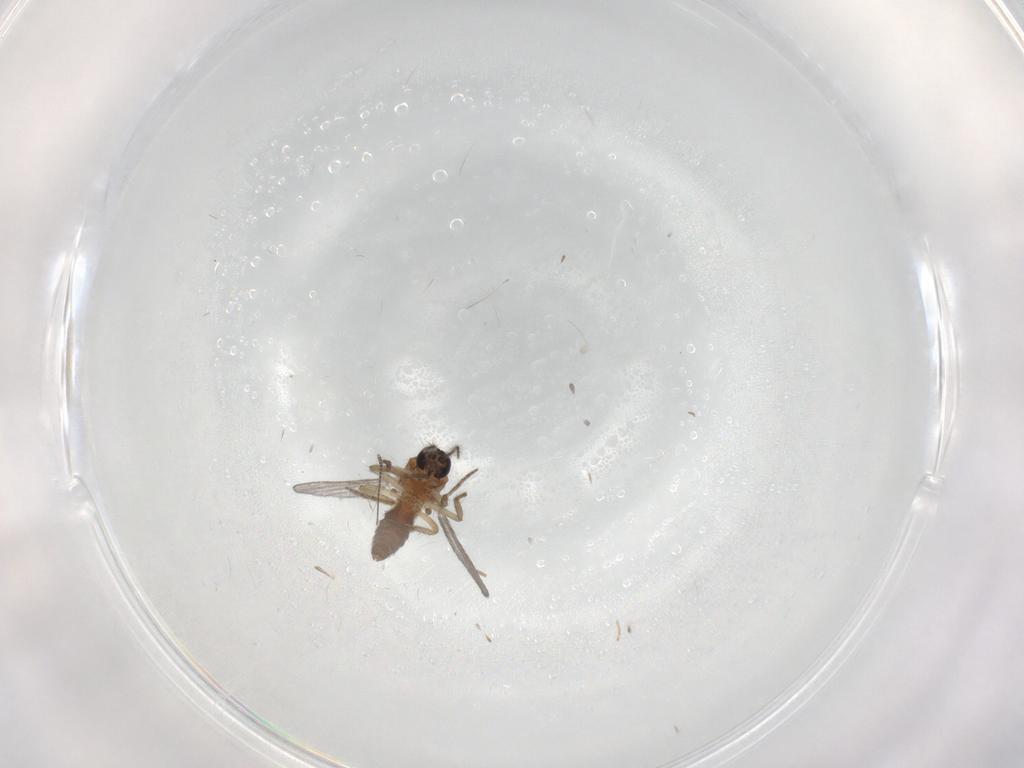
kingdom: Animalia
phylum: Arthropoda
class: Insecta
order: Diptera
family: Chironomidae
